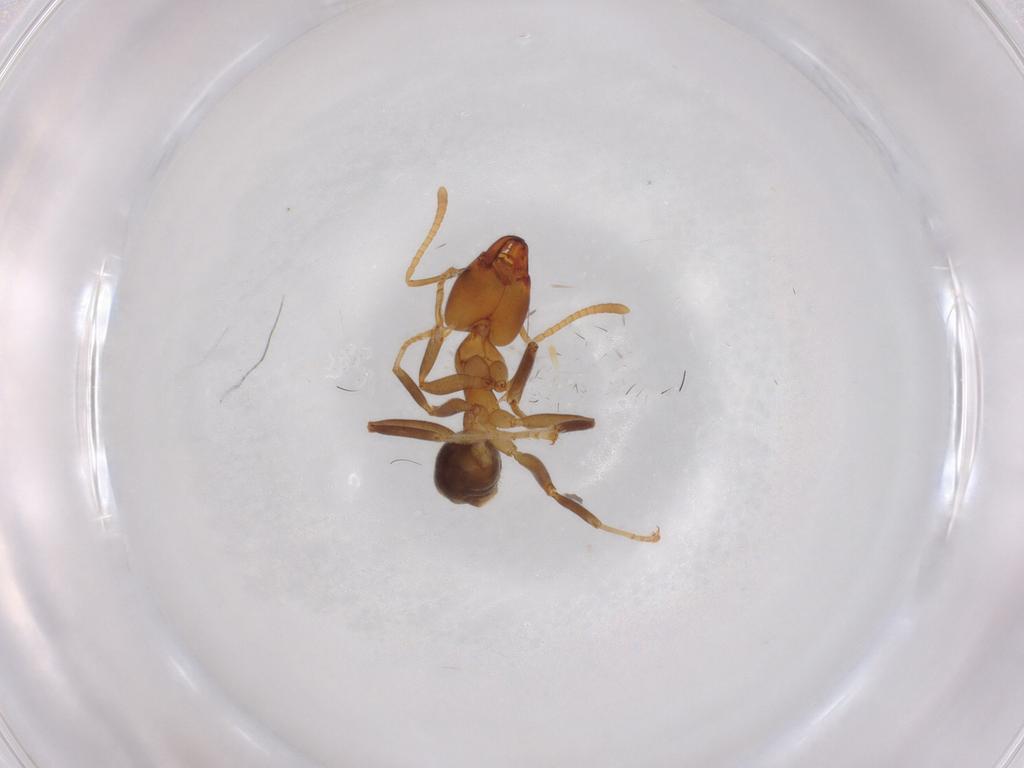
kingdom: Animalia
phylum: Arthropoda
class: Insecta
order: Hymenoptera
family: Formicidae
